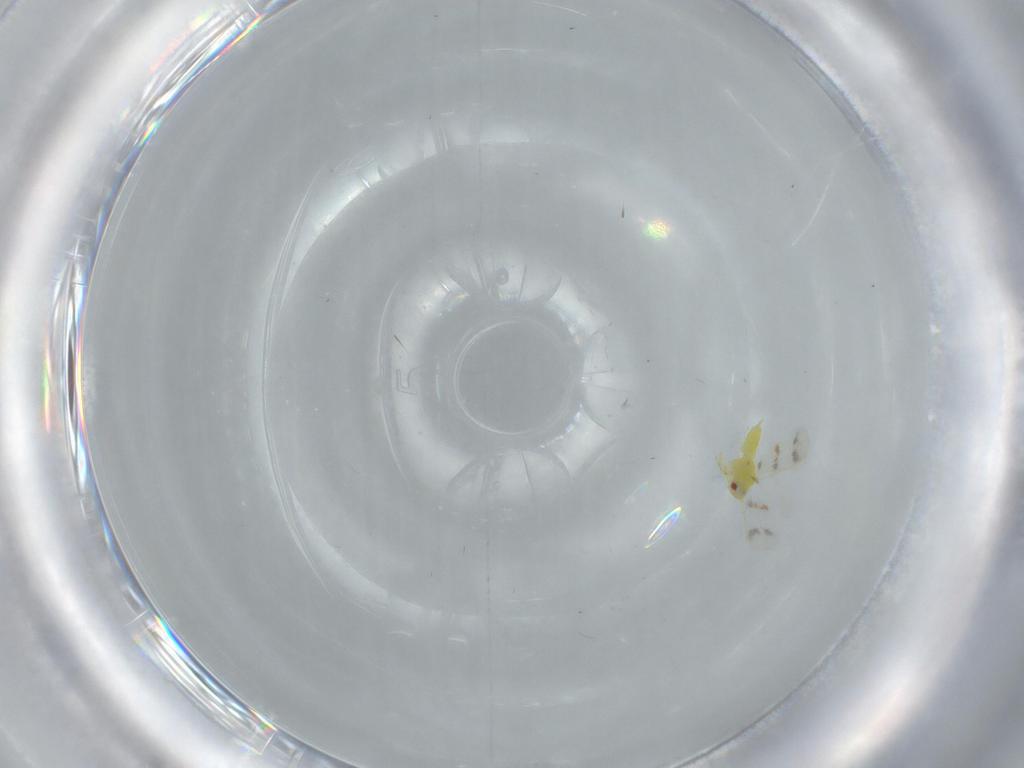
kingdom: Animalia
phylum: Arthropoda
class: Insecta
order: Hemiptera
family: Aleyrodidae
